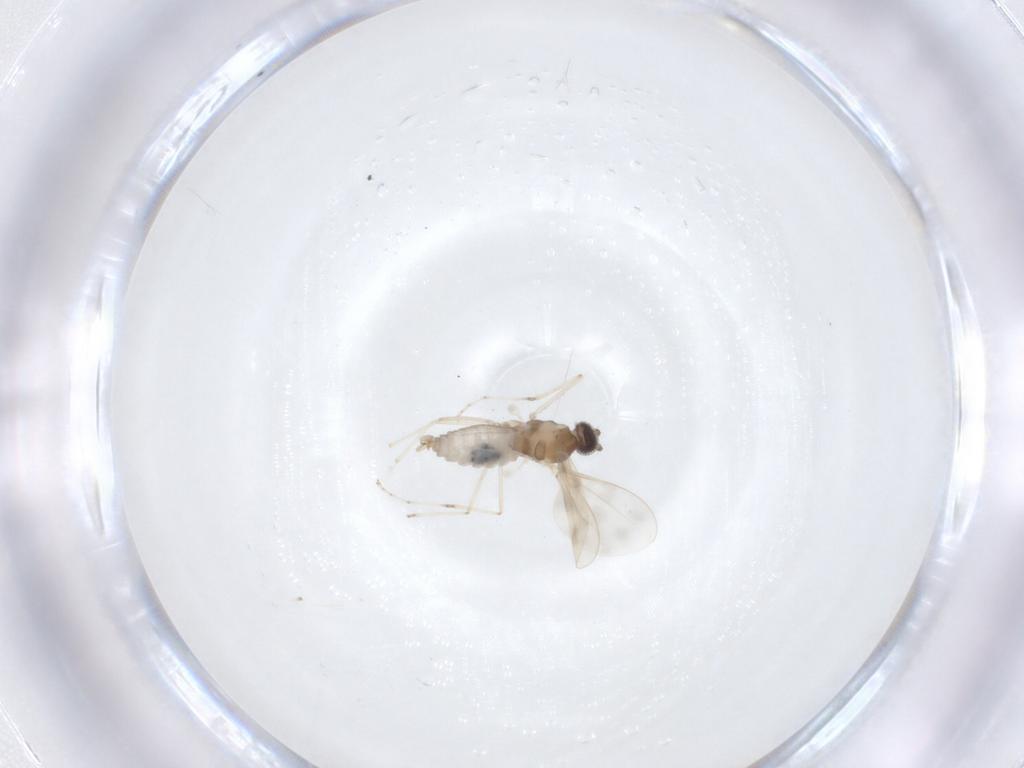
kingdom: Animalia
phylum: Arthropoda
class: Insecta
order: Diptera
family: Cecidomyiidae
